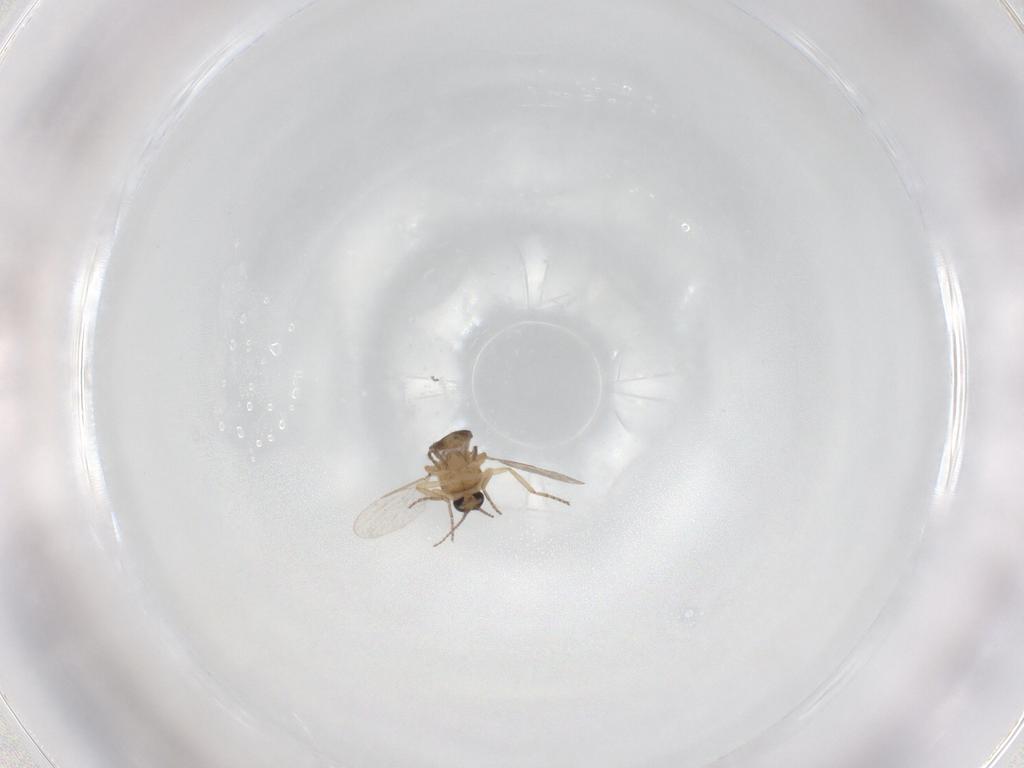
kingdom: Animalia
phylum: Arthropoda
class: Insecta
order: Diptera
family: Ceratopogonidae
